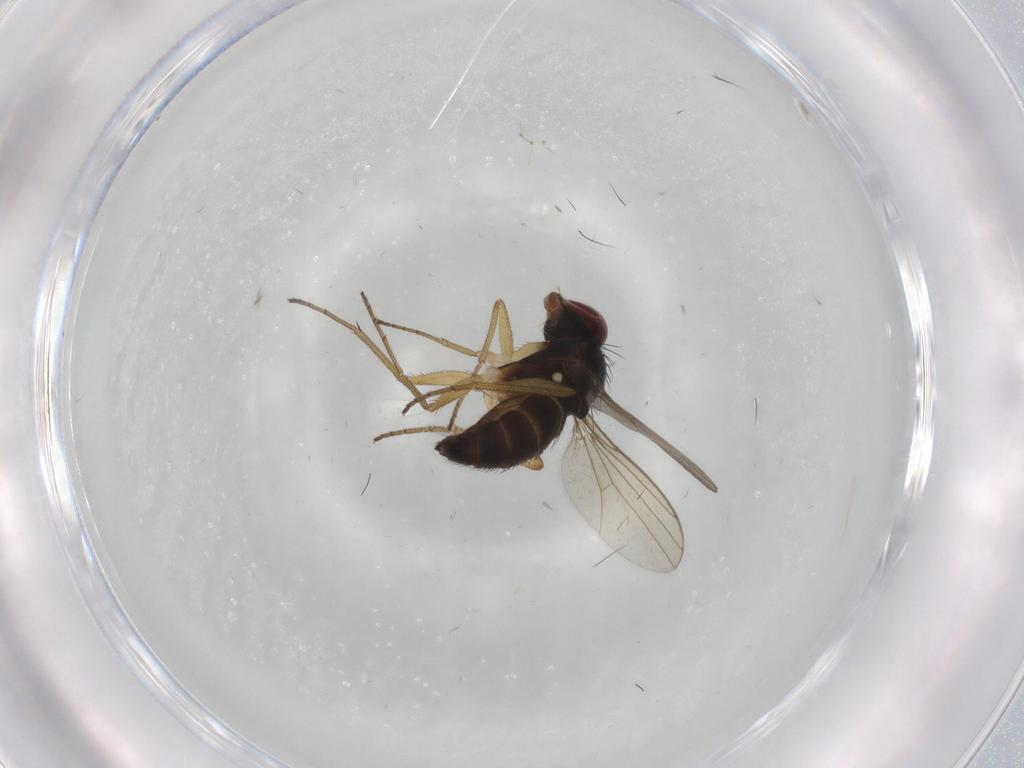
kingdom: Animalia
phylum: Arthropoda
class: Insecta
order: Diptera
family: Dolichopodidae
